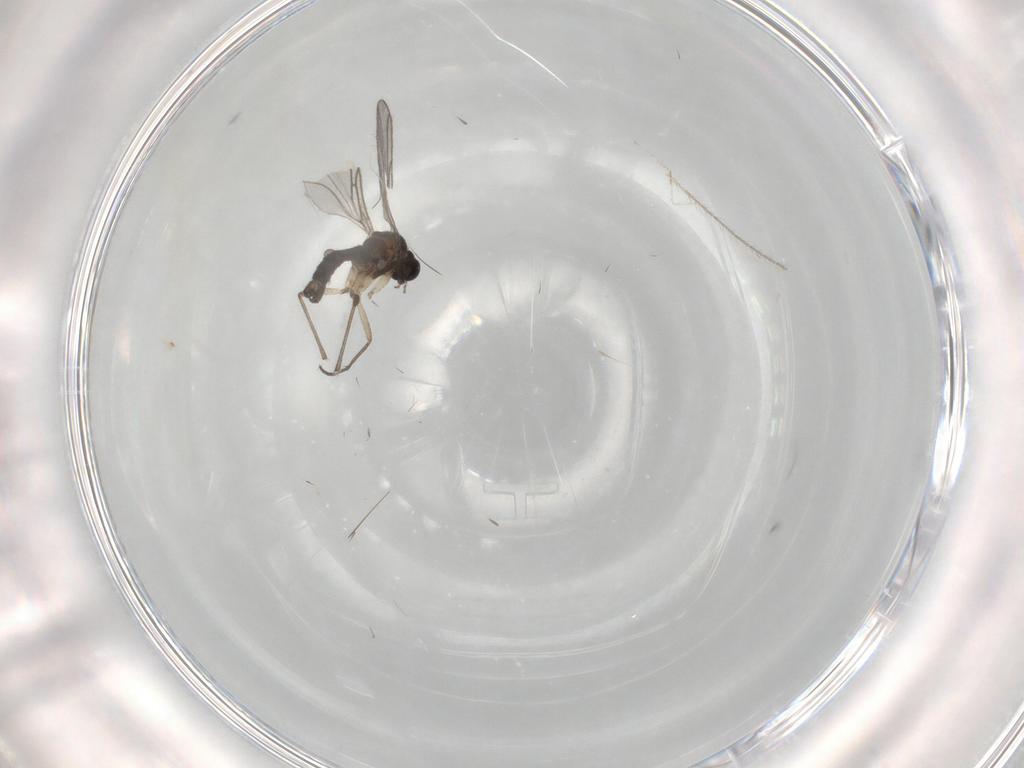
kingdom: Animalia
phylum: Arthropoda
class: Insecta
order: Diptera
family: Sciaridae
